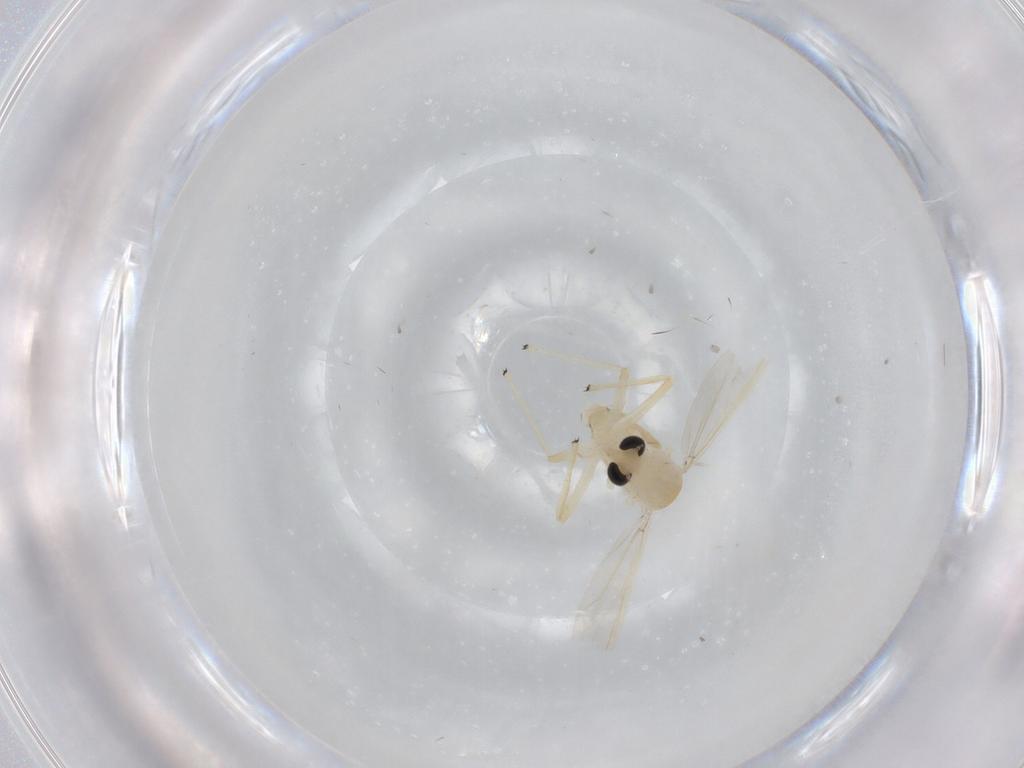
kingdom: Animalia
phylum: Arthropoda
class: Insecta
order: Diptera
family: Chironomidae
